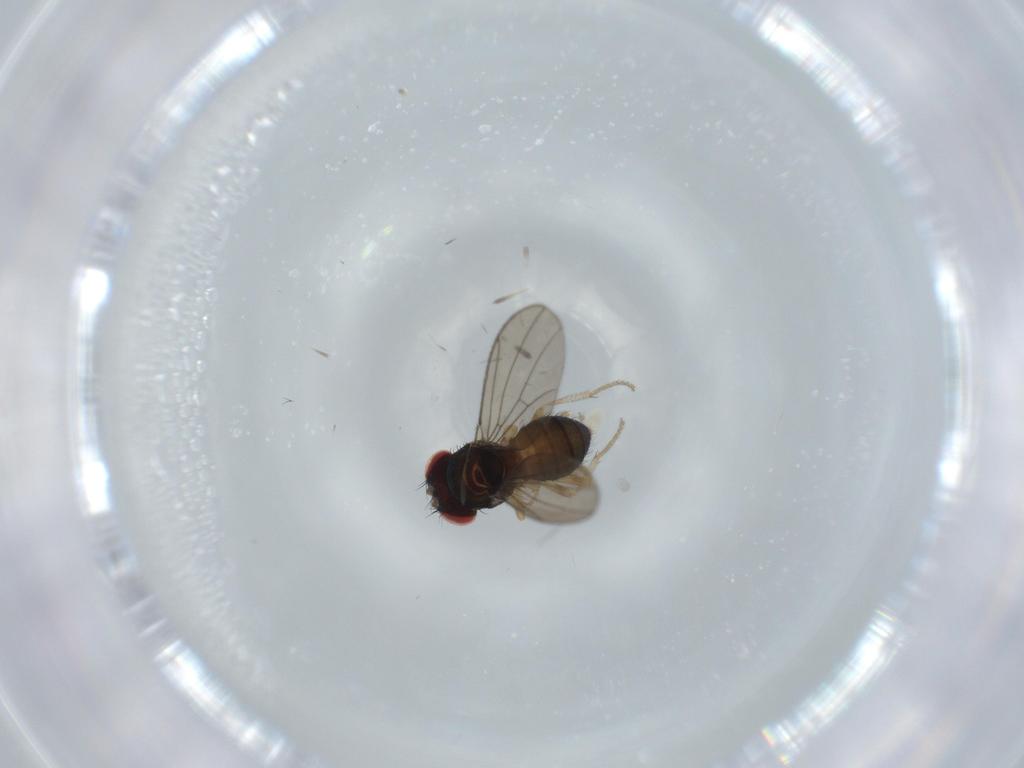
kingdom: Animalia
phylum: Arthropoda
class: Insecta
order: Diptera
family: Drosophilidae
